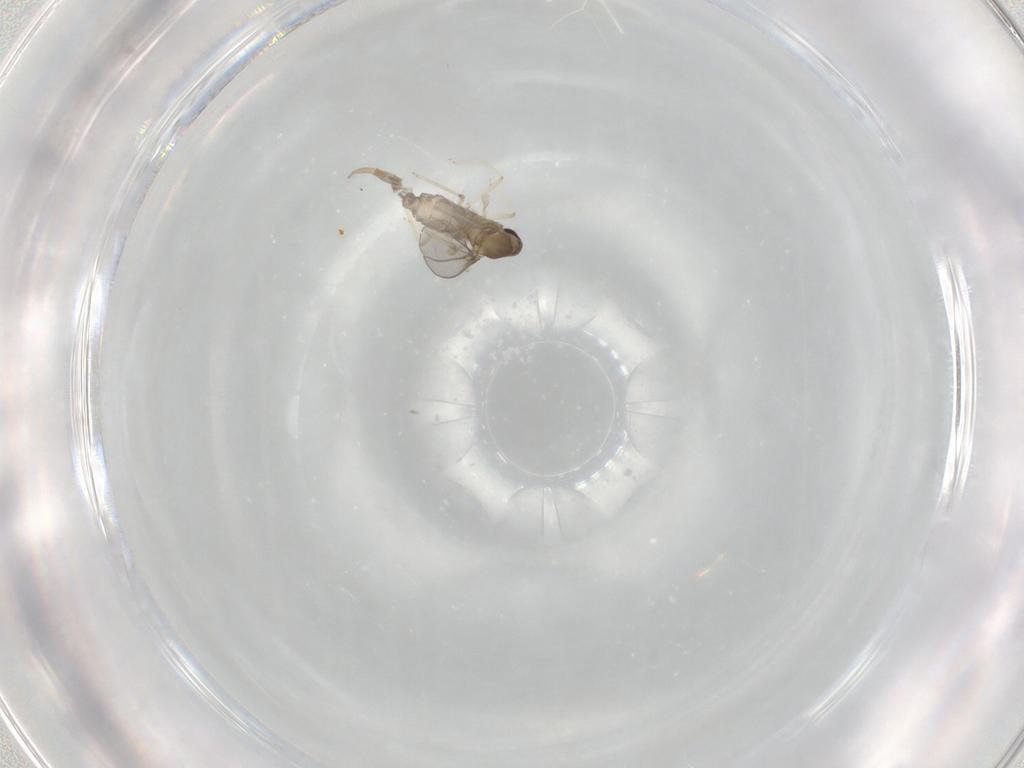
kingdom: Animalia
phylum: Arthropoda
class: Insecta
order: Diptera
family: Cecidomyiidae
